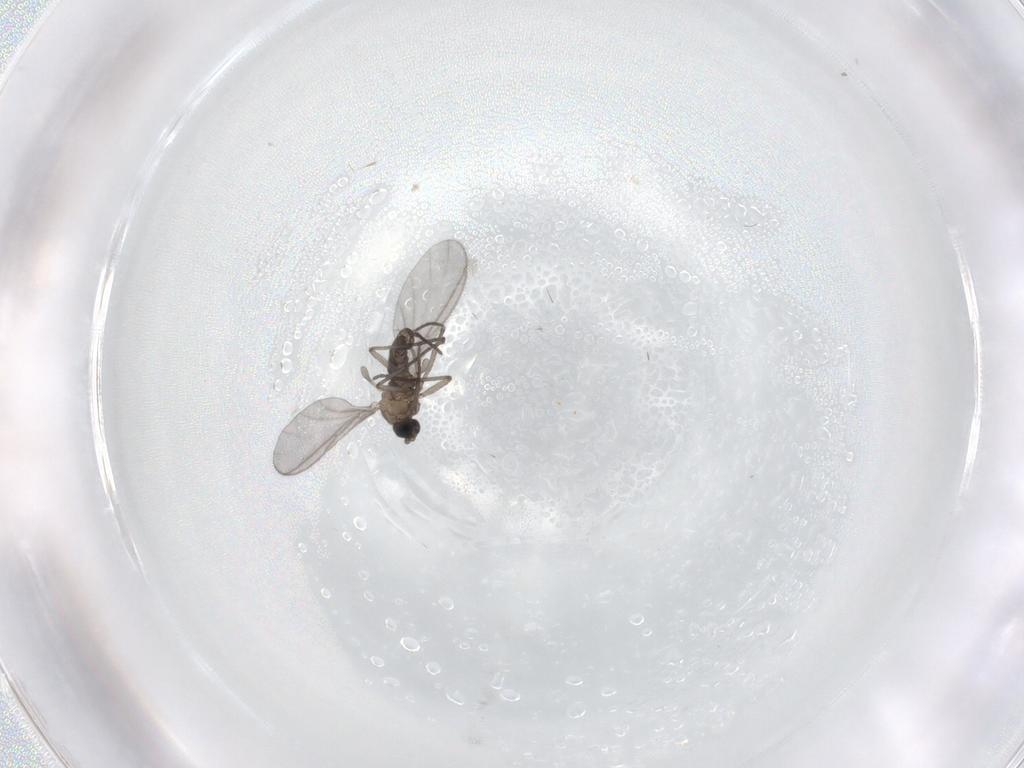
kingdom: Animalia
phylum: Arthropoda
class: Insecta
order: Diptera
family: Sciaridae
